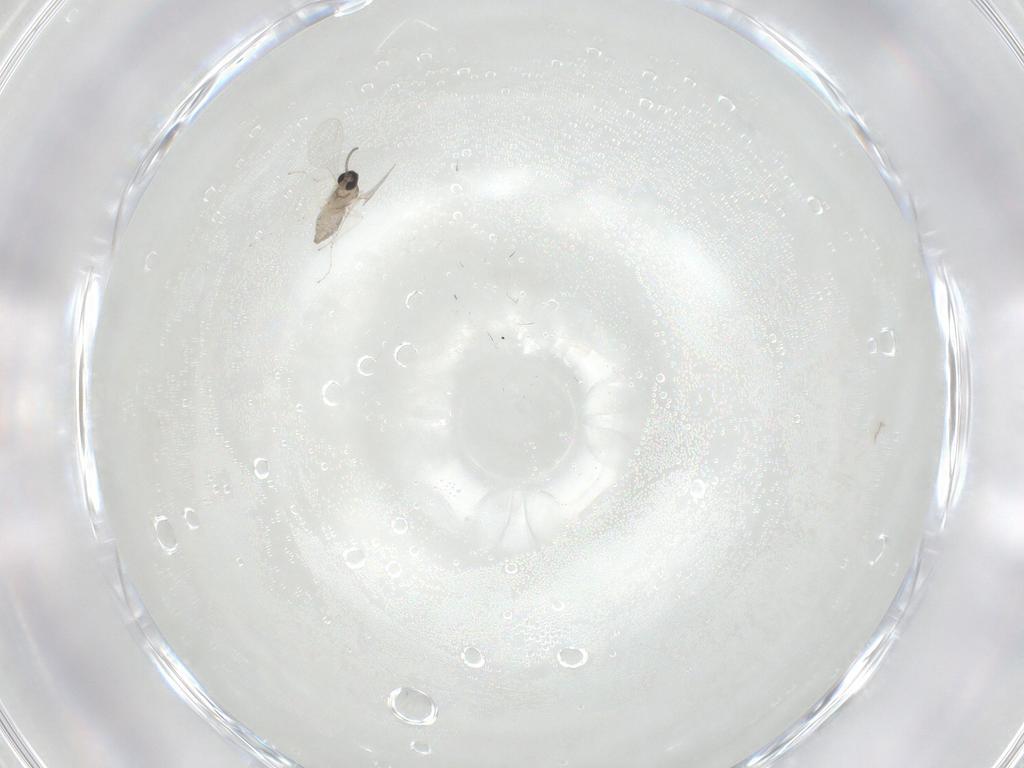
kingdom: Animalia
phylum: Arthropoda
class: Insecta
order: Diptera
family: Cecidomyiidae
